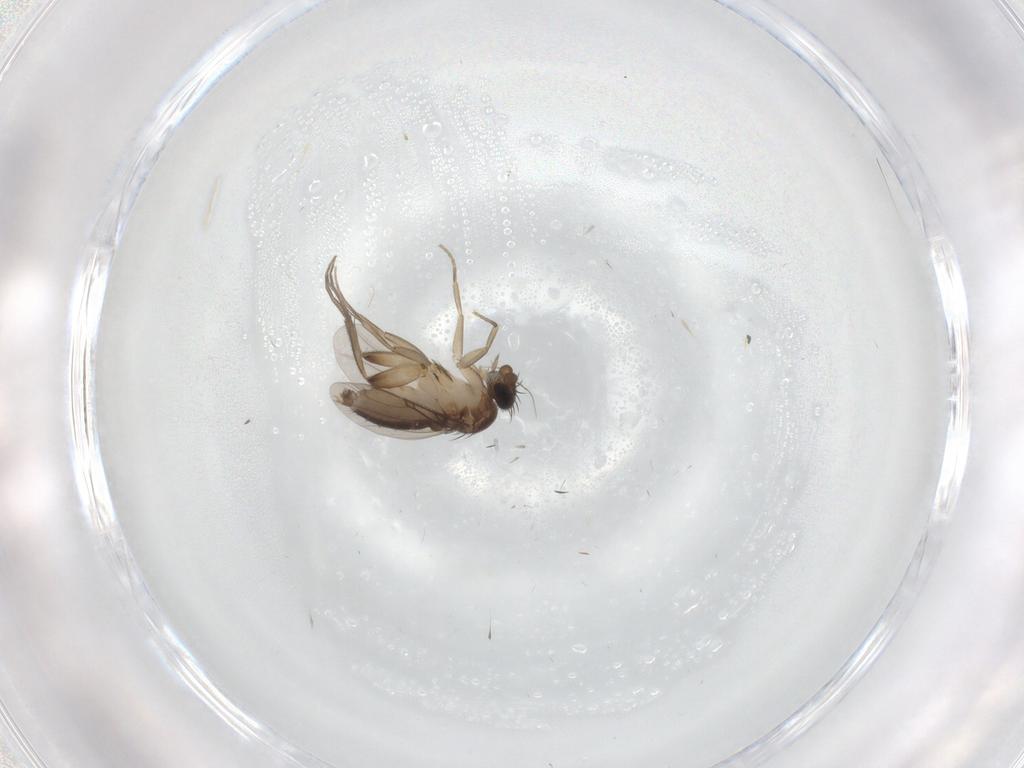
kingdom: Animalia
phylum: Arthropoda
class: Insecta
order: Diptera
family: Phoridae
